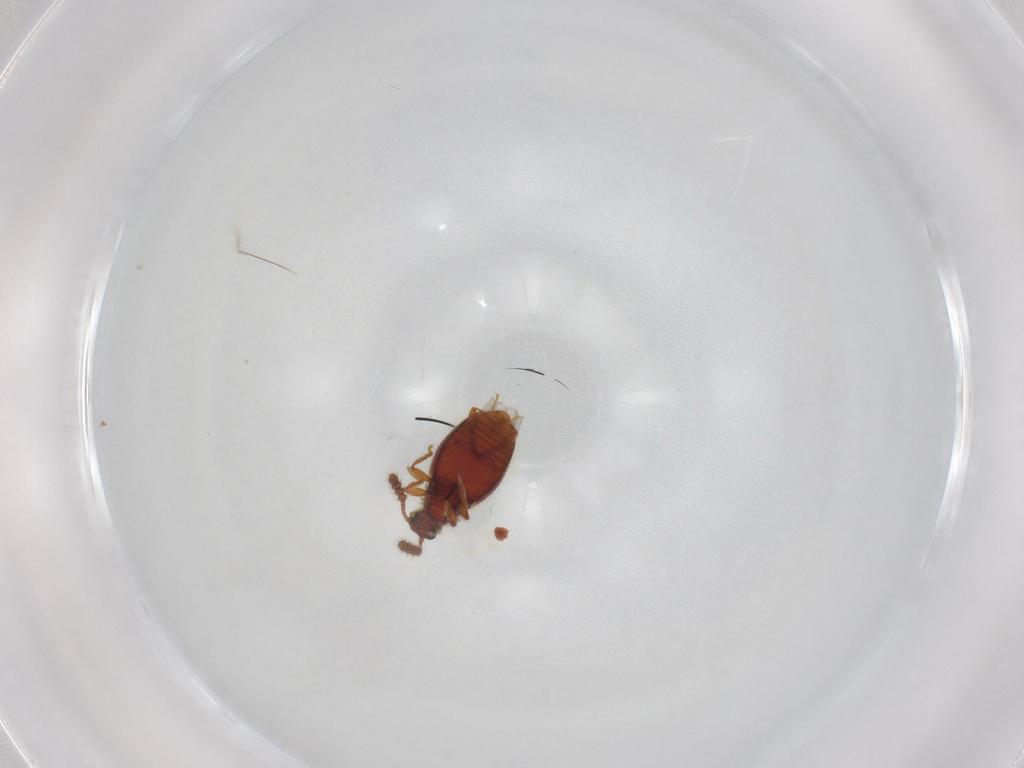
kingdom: Animalia
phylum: Arthropoda
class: Insecta
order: Coleoptera
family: Staphylinidae
